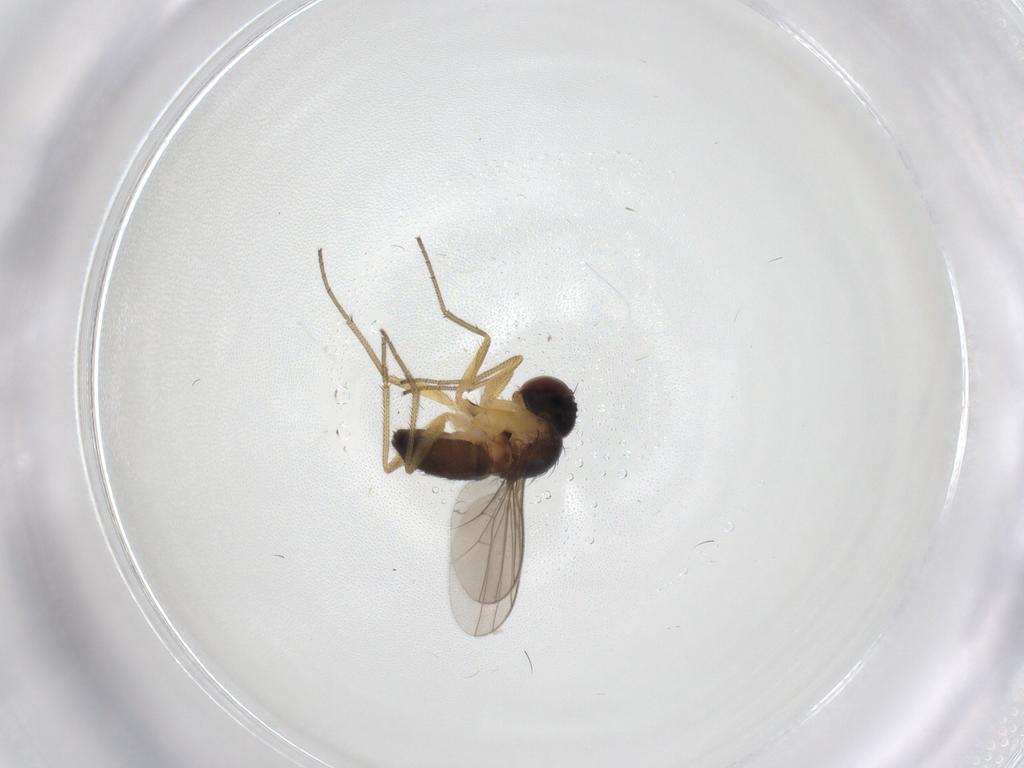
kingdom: Animalia
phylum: Arthropoda
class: Insecta
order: Diptera
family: Dolichopodidae
